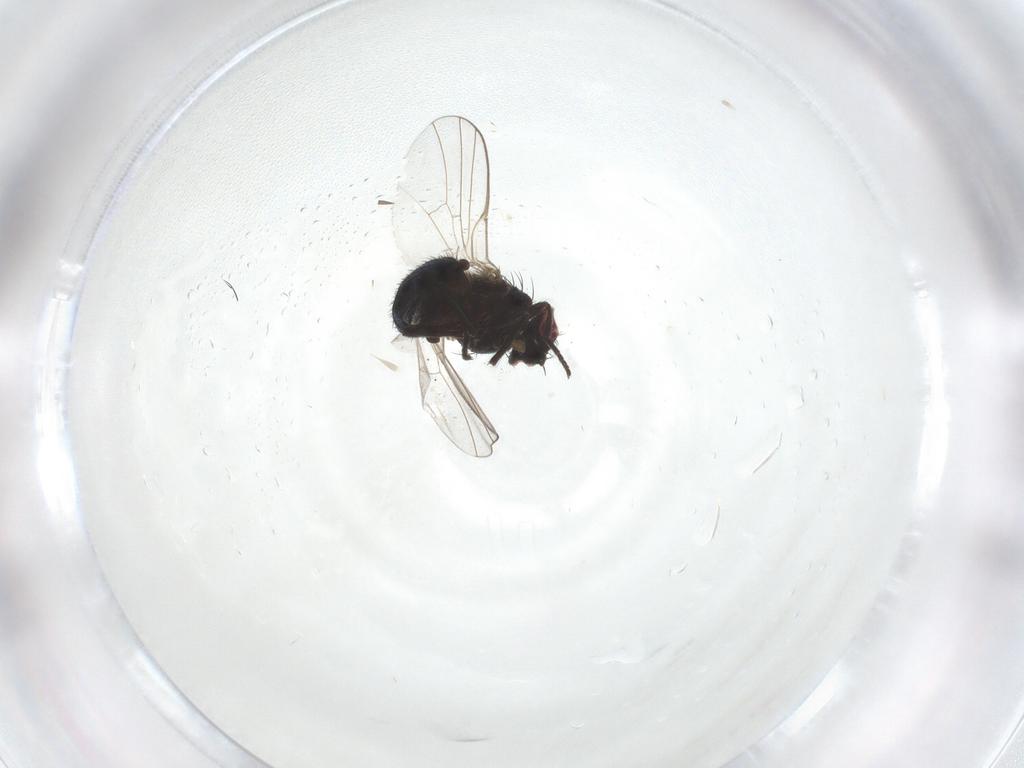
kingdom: Animalia
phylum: Arthropoda
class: Insecta
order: Diptera
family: Agromyzidae
